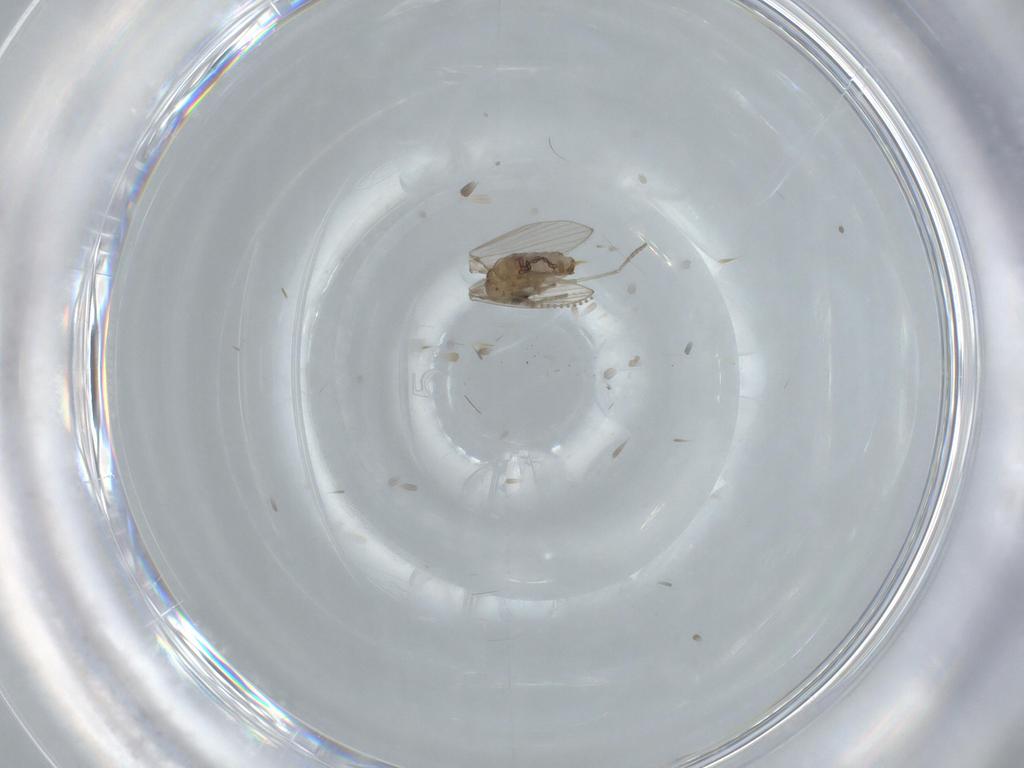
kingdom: Animalia
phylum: Arthropoda
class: Insecta
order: Diptera
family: Psychodidae
